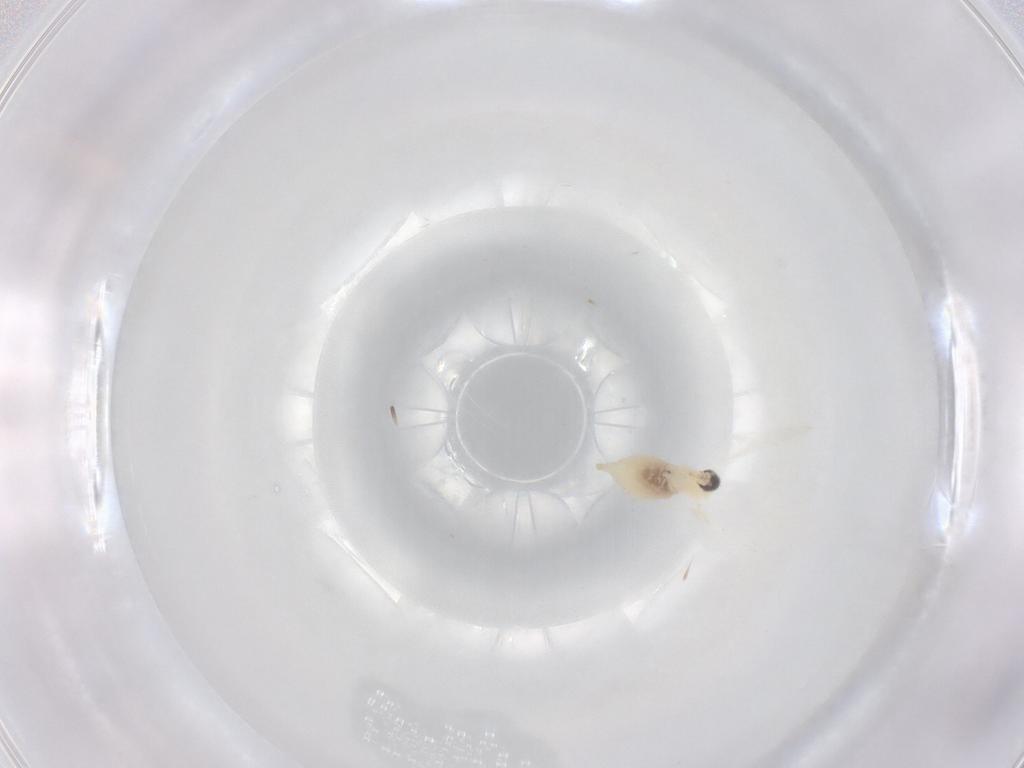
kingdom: Animalia
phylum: Arthropoda
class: Insecta
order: Diptera
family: Cecidomyiidae
